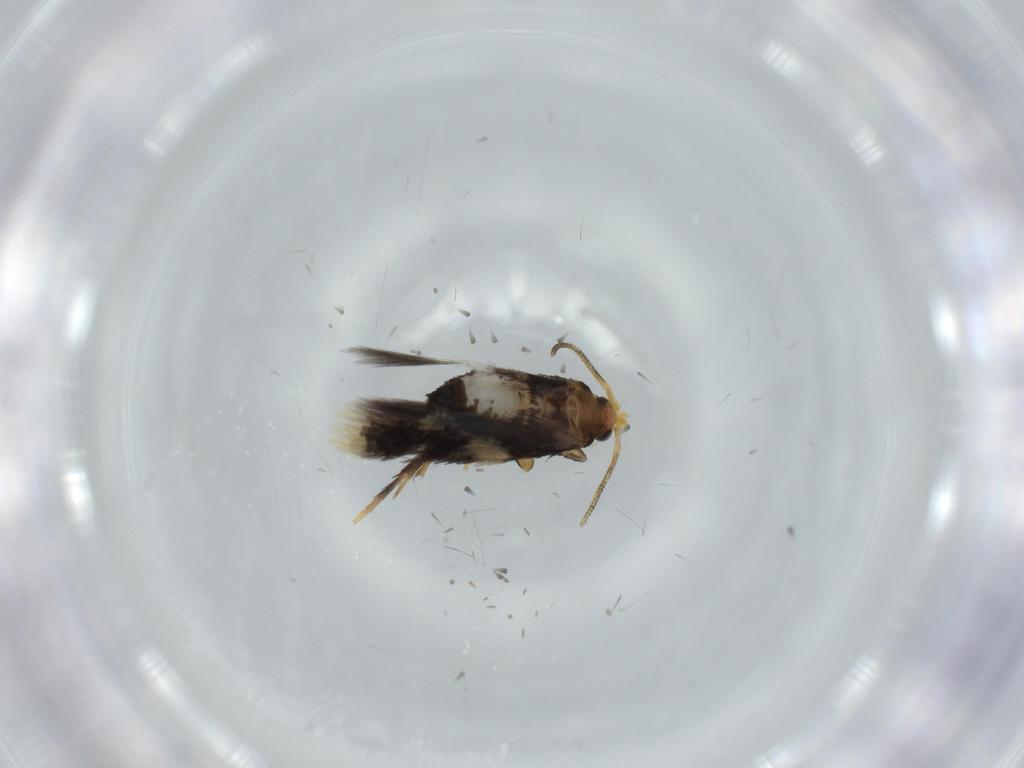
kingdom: Animalia
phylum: Arthropoda
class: Insecta
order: Lepidoptera
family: Nepticulidae
